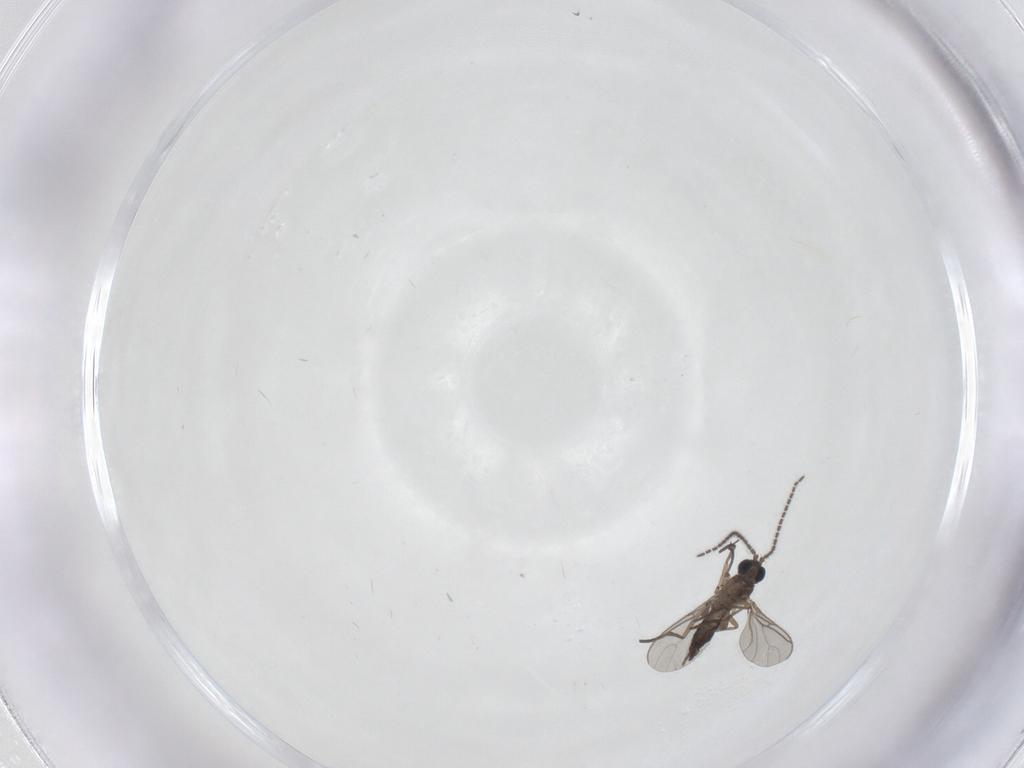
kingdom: Animalia
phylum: Arthropoda
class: Insecta
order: Diptera
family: Sciaridae
